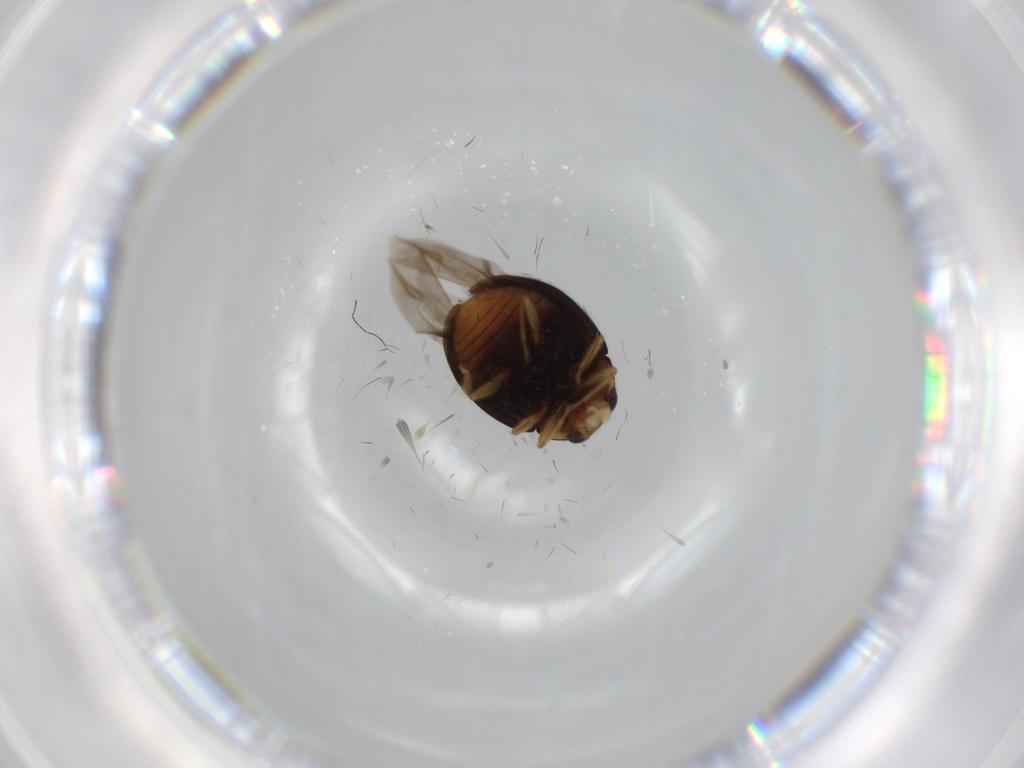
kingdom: Animalia
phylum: Arthropoda
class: Insecta
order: Coleoptera
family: Coccinellidae
